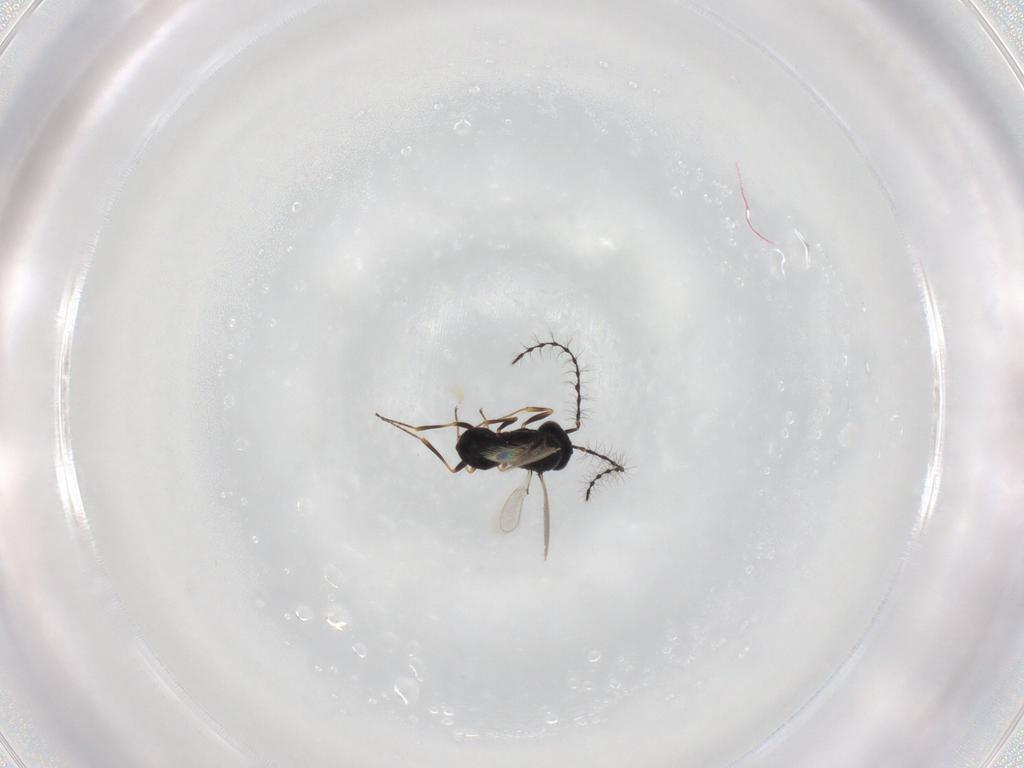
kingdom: Animalia
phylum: Arthropoda
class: Insecta
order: Hymenoptera
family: Scelionidae
